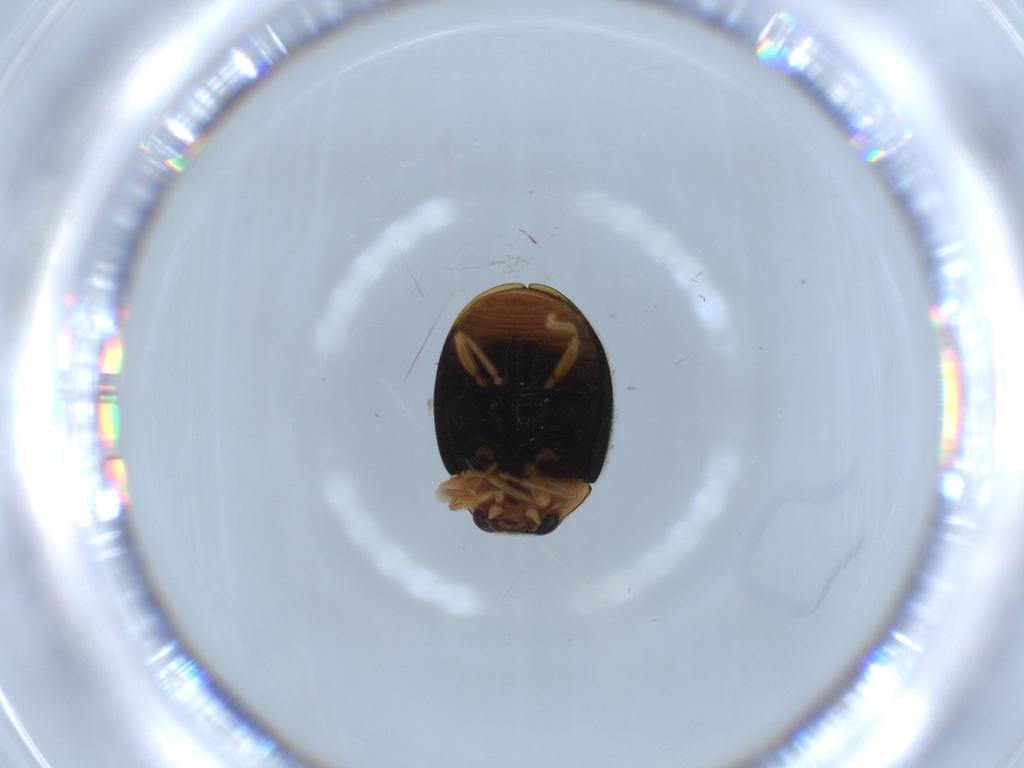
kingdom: Animalia
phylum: Arthropoda
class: Insecta
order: Coleoptera
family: Coccinellidae
